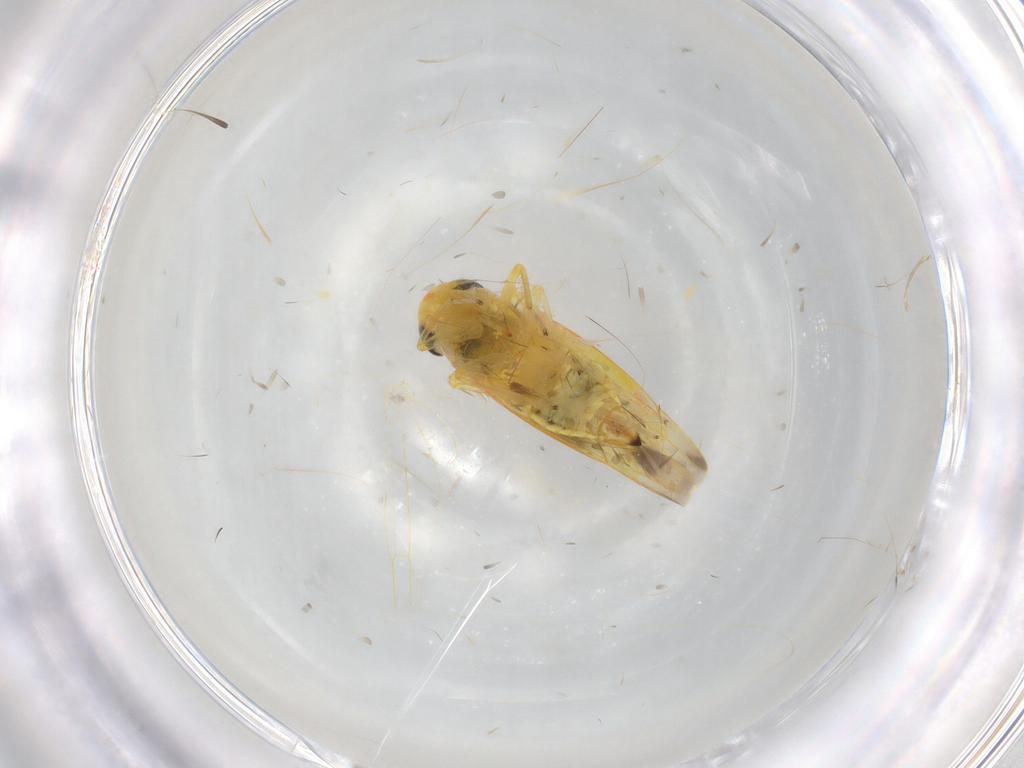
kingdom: Animalia
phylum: Arthropoda
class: Insecta
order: Hemiptera
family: Cicadellidae
